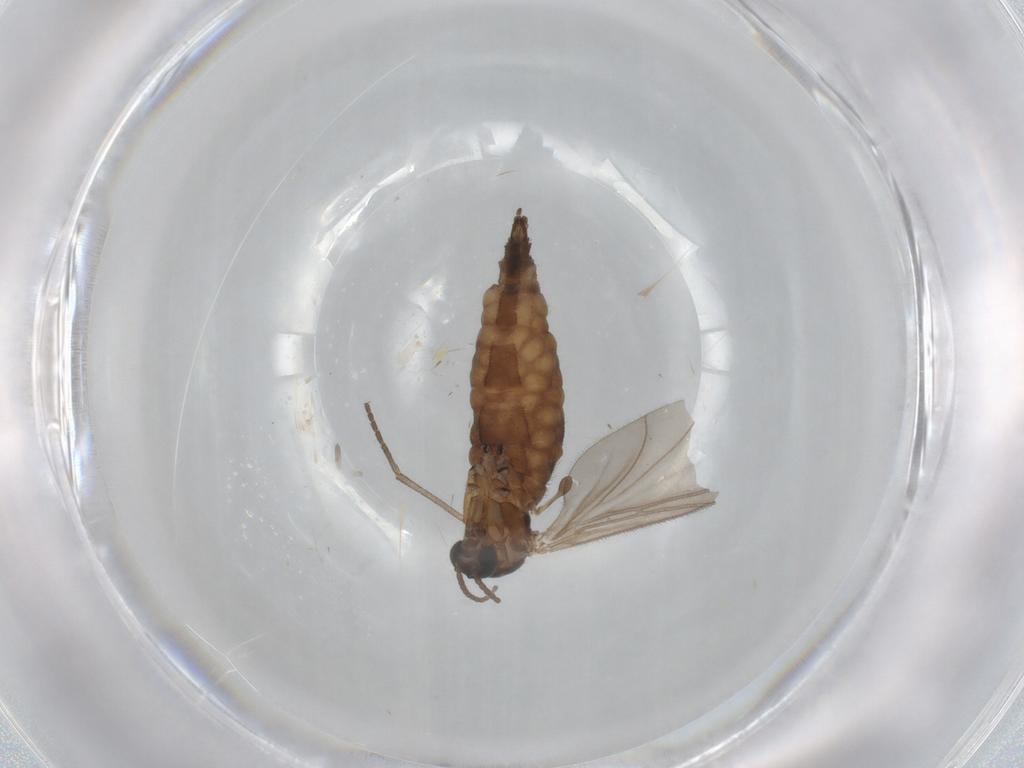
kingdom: Animalia
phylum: Arthropoda
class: Insecta
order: Diptera
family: Sciaridae
